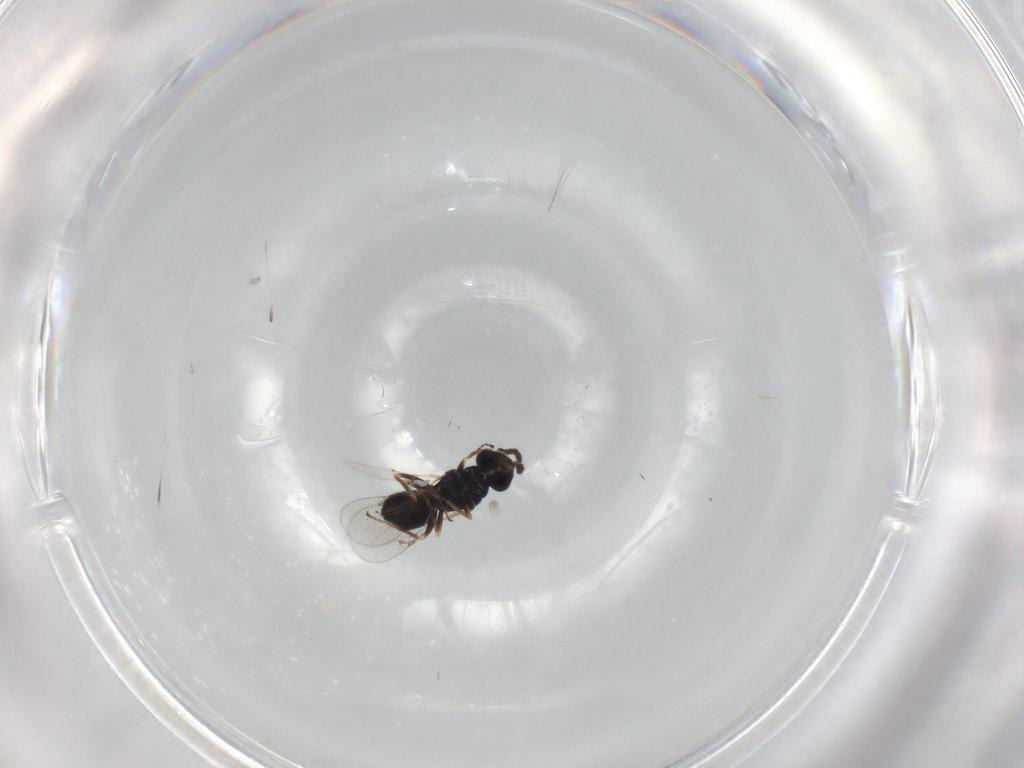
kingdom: Animalia
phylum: Arthropoda
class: Insecta
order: Hymenoptera
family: Eulophidae
